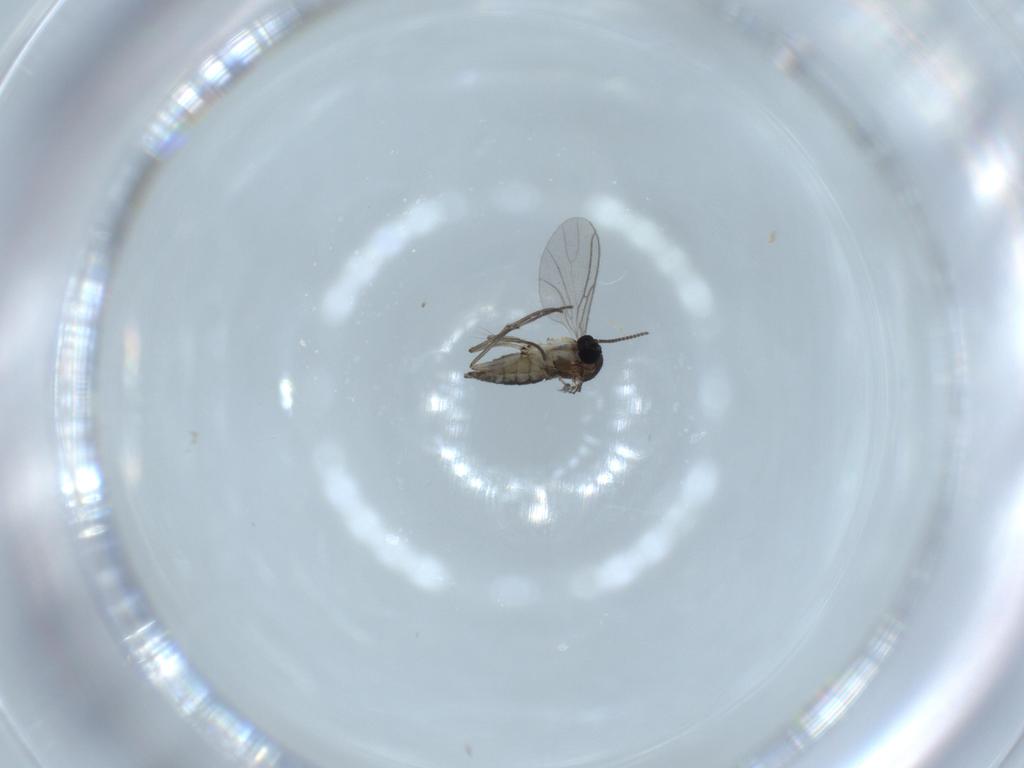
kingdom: Animalia
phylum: Arthropoda
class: Insecta
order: Diptera
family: Sciaridae
